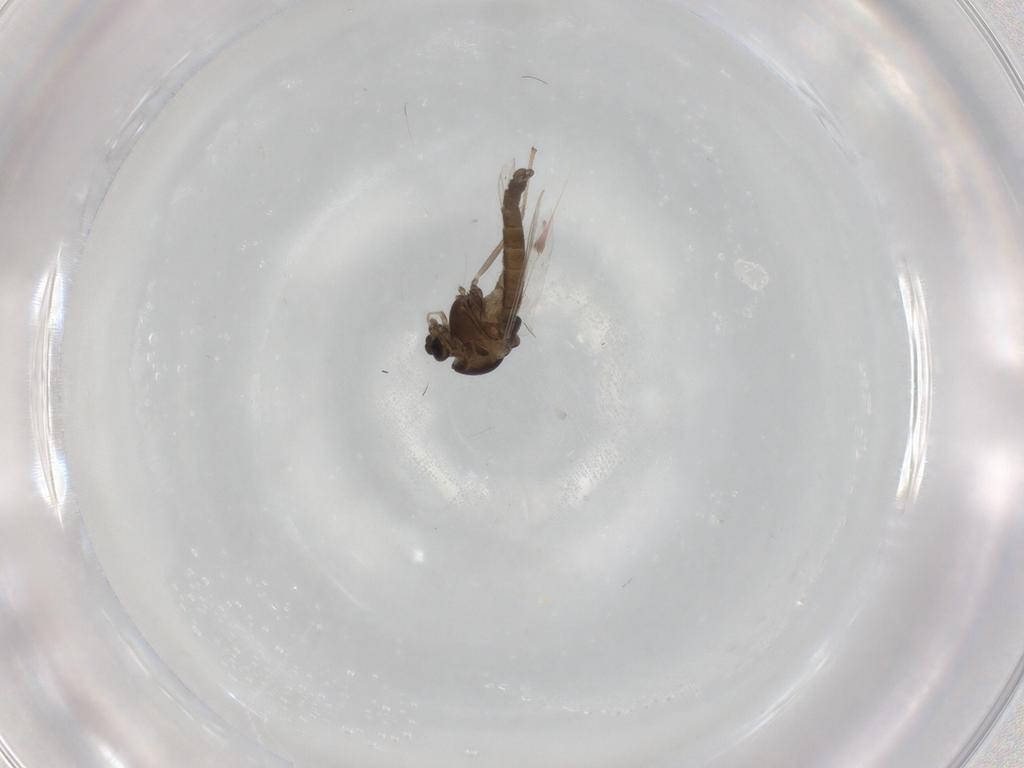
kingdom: Animalia
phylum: Arthropoda
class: Insecta
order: Diptera
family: Chironomidae
